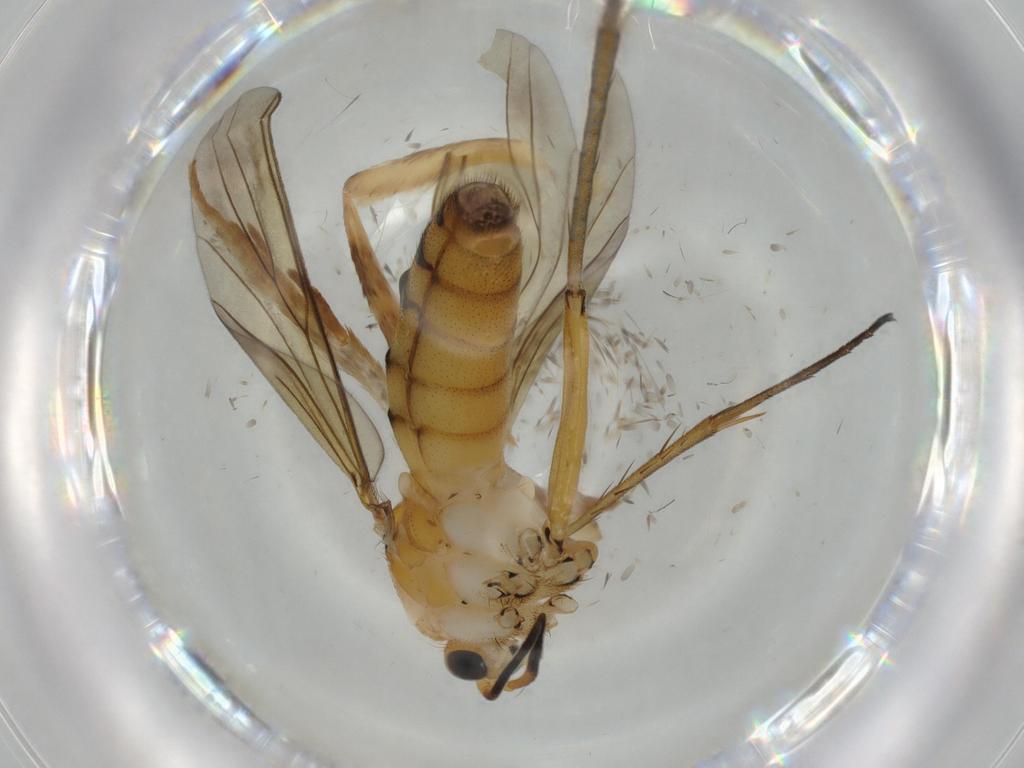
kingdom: Animalia
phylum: Arthropoda
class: Insecta
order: Diptera
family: Mycetophilidae
